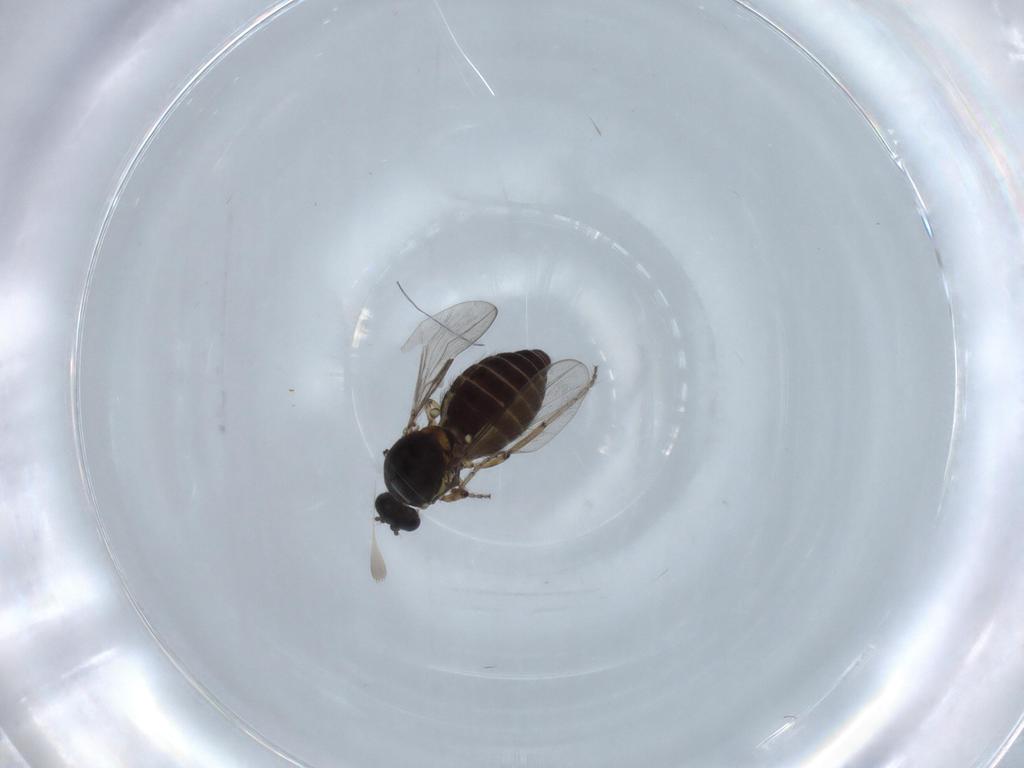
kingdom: Animalia
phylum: Arthropoda
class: Insecta
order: Diptera
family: Ceratopogonidae
